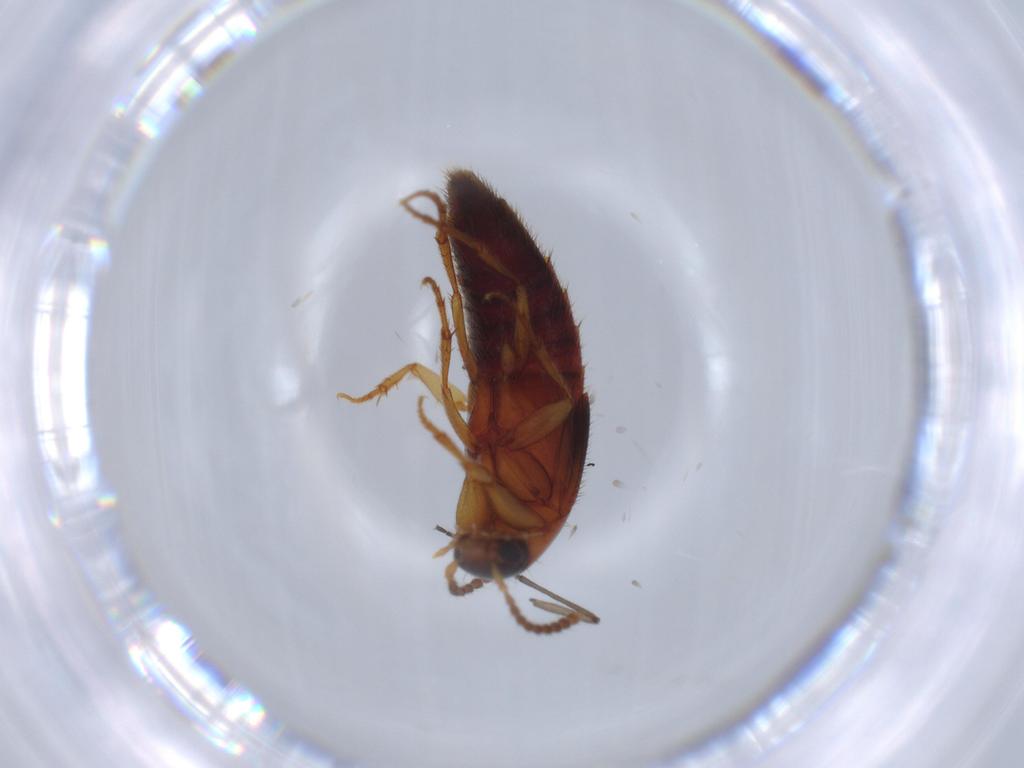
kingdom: Animalia
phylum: Arthropoda
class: Insecta
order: Coleoptera
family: Staphylinidae
